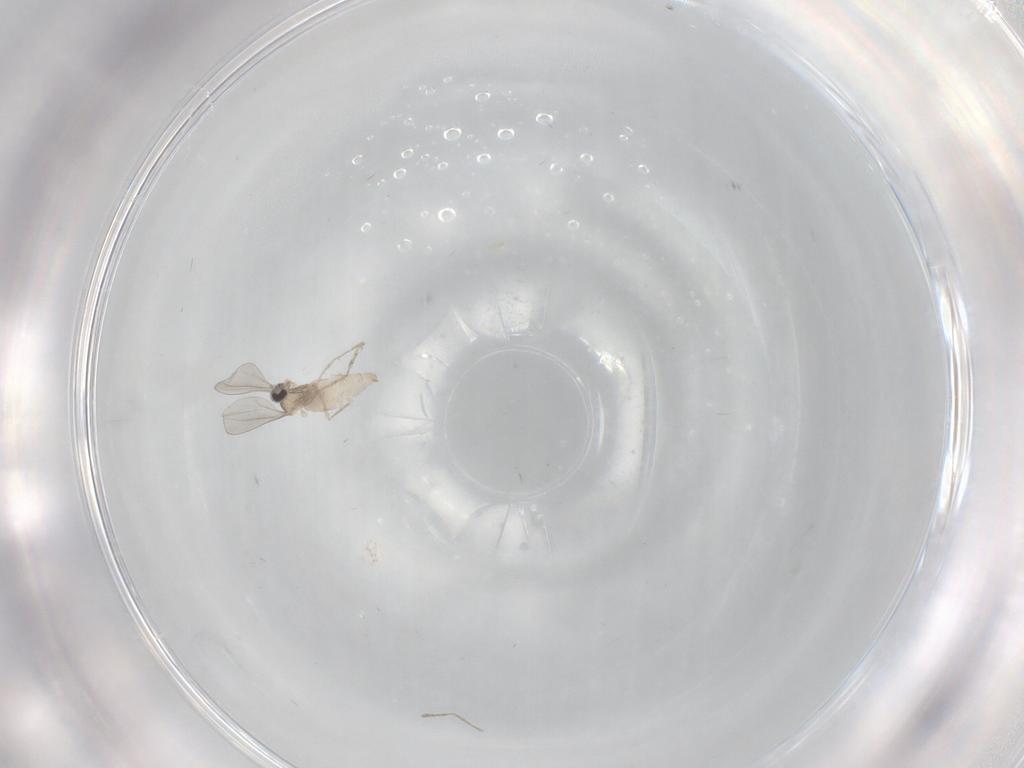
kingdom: Animalia
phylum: Arthropoda
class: Insecta
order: Diptera
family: Cecidomyiidae
